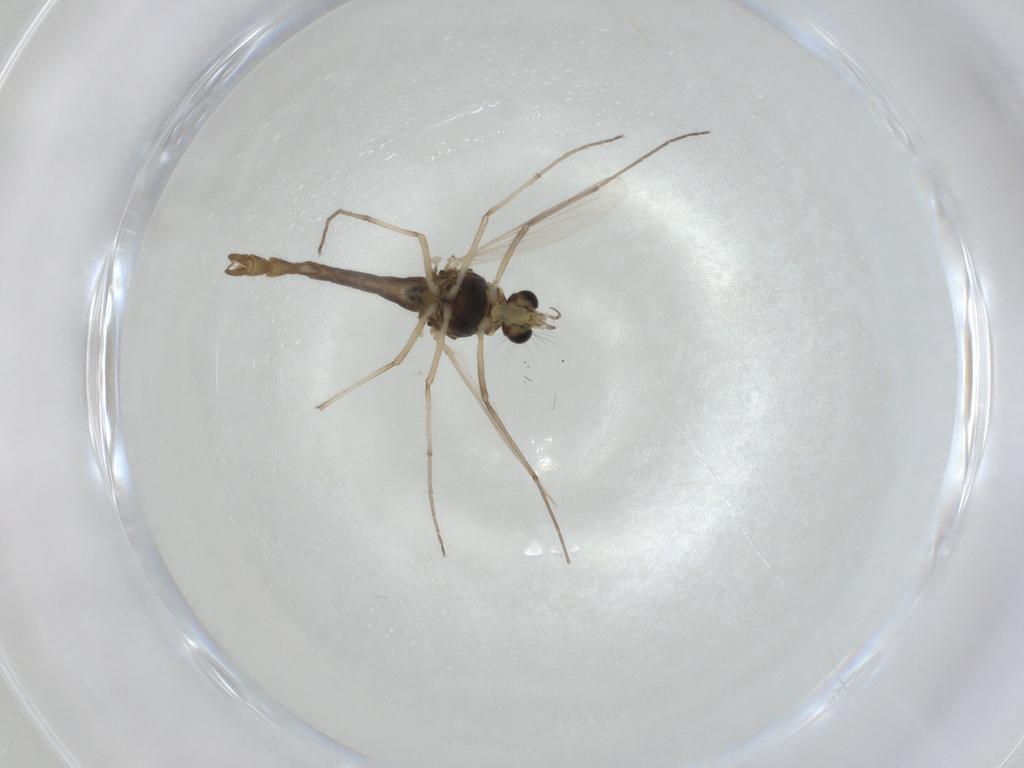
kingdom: Animalia
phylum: Arthropoda
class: Insecta
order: Diptera
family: Chironomidae
